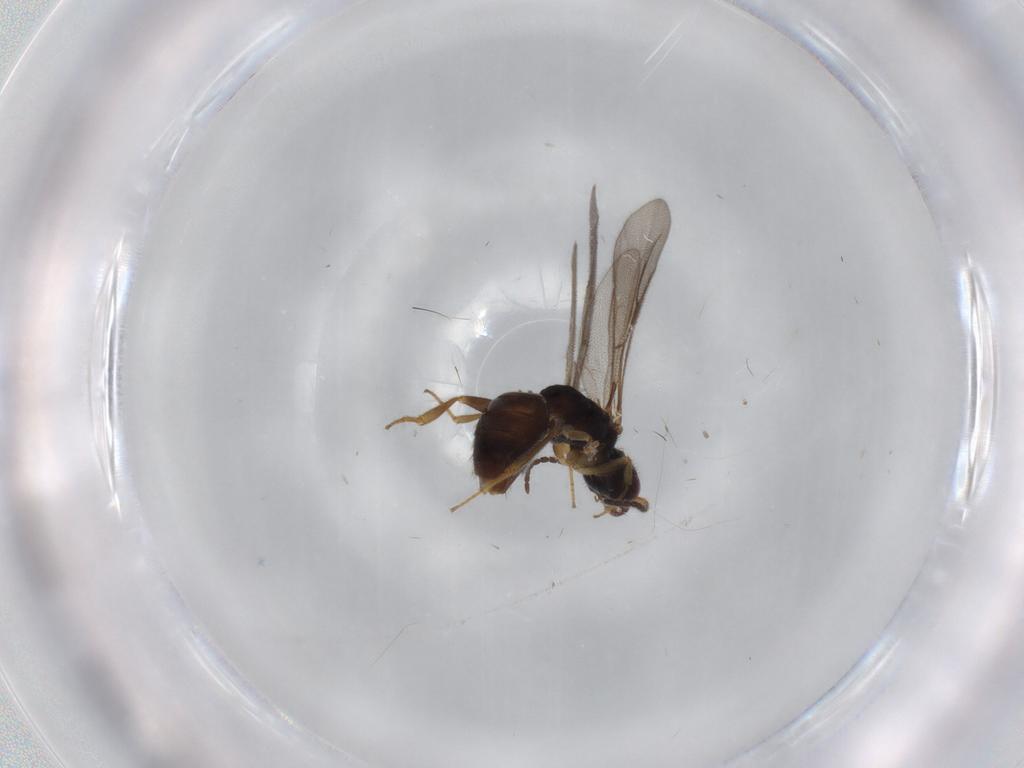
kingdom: Animalia
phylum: Arthropoda
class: Insecta
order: Hymenoptera
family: Bethylidae
